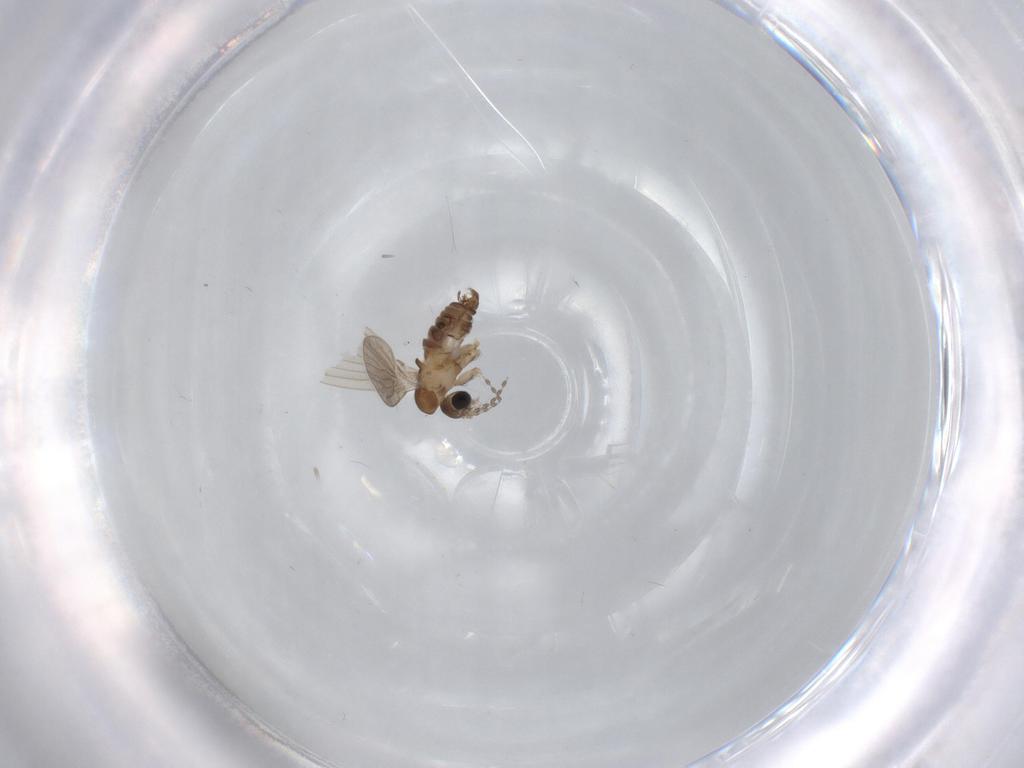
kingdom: Animalia
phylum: Arthropoda
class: Insecta
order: Diptera
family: Psychodidae
